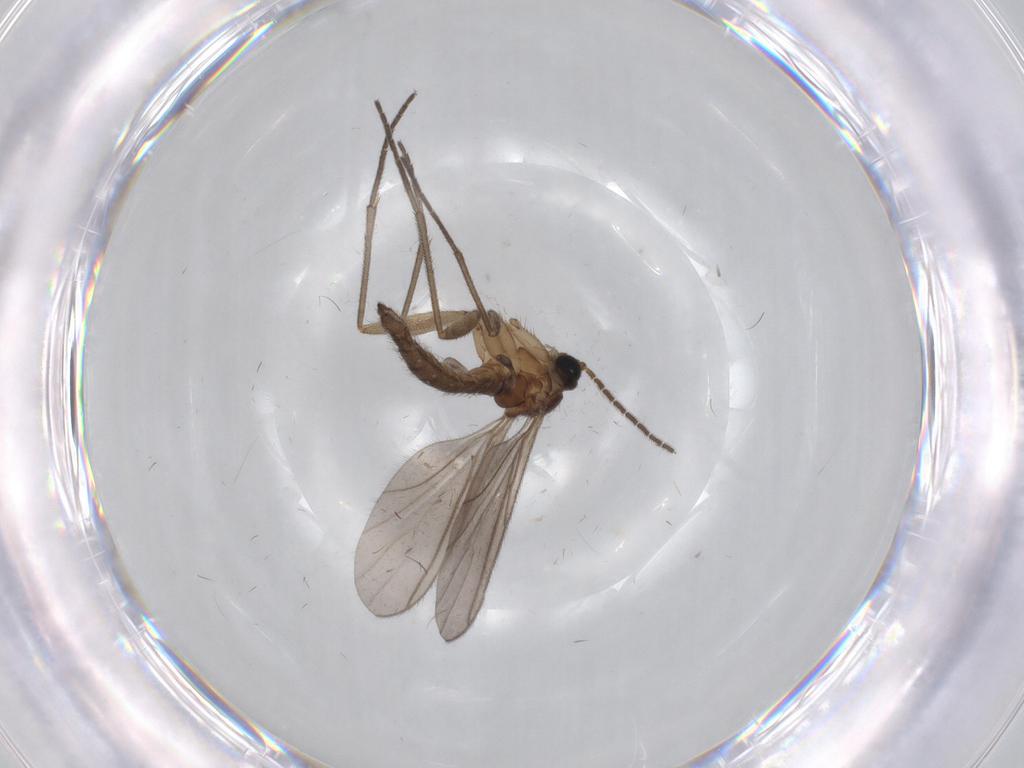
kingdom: Animalia
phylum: Arthropoda
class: Insecta
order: Diptera
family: Sciaridae
